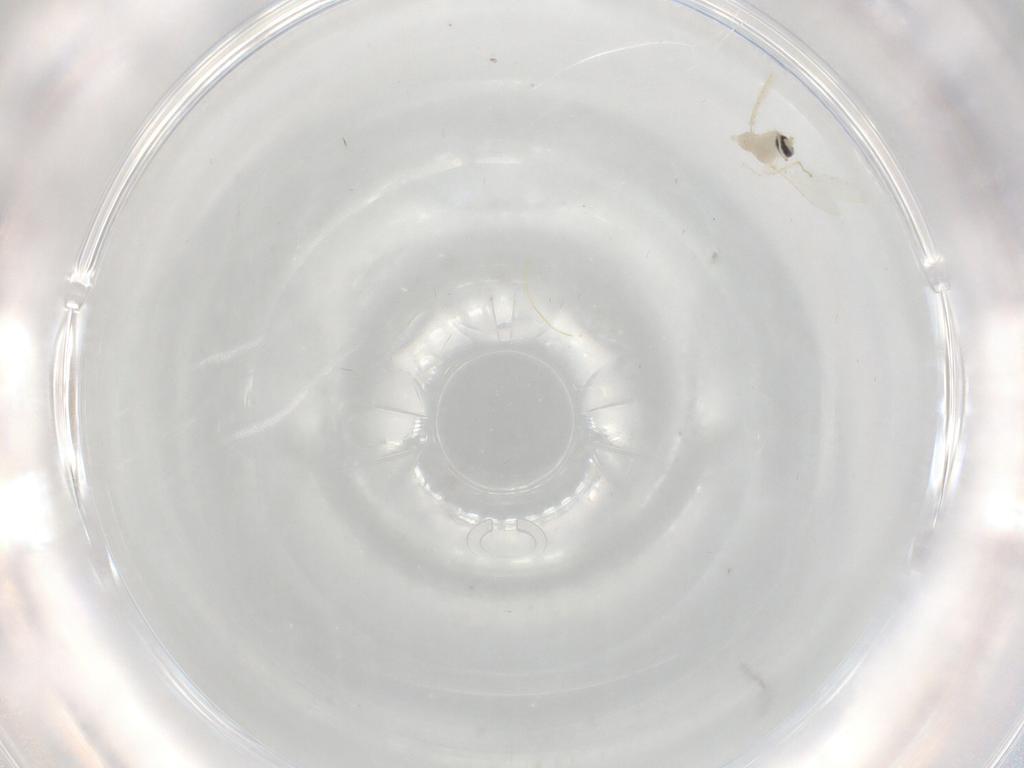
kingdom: Animalia
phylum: Arthropoda
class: Insecta
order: Diptera
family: Cecidomyiidae
